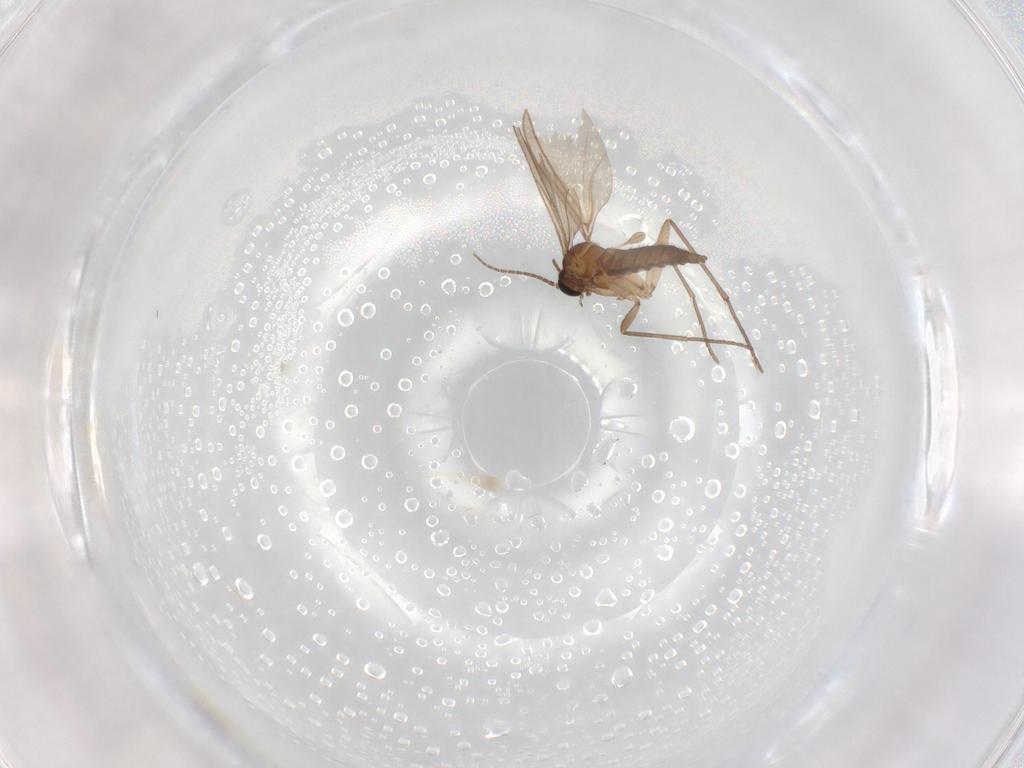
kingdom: Animalia
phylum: Arthropoda
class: Insecta
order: Diptera
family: Sciaridae
